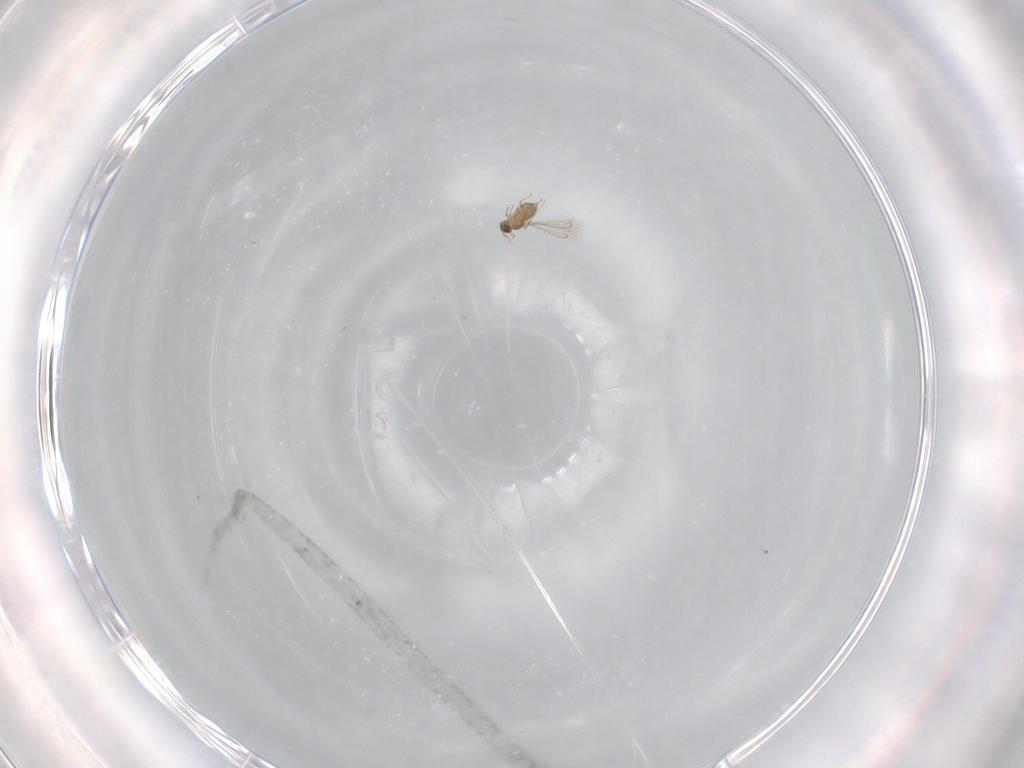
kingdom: Animalia
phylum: Arthropoda
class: Insecta
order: Hymenoptera
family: Mymaridae
